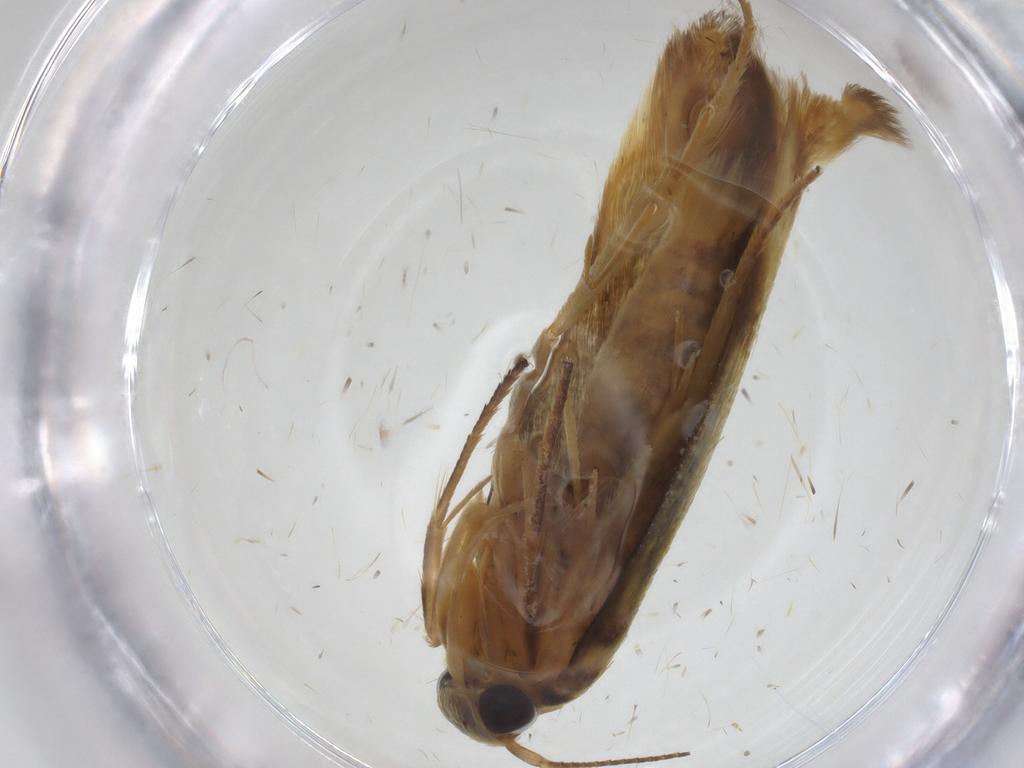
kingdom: Animalia
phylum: Arthropoda
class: Insecta
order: Lepidoptera
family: Stathmopodidae
